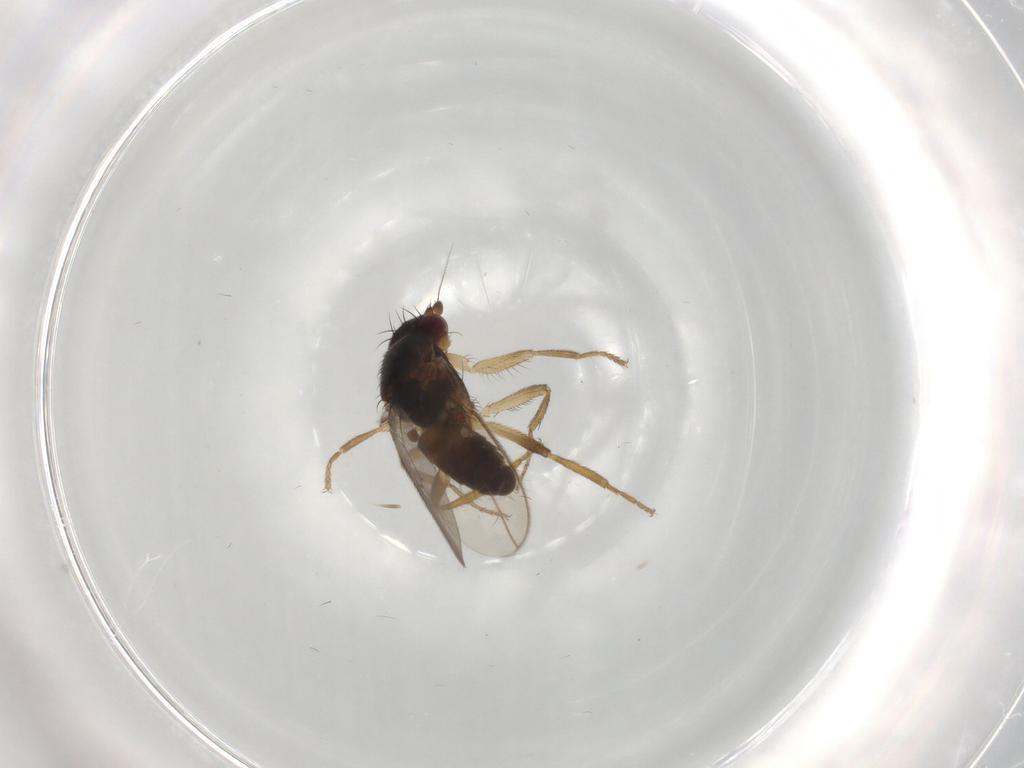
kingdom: Animalia
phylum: Arthropoda
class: Insecta
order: Diptera
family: Sphaeroceridae
